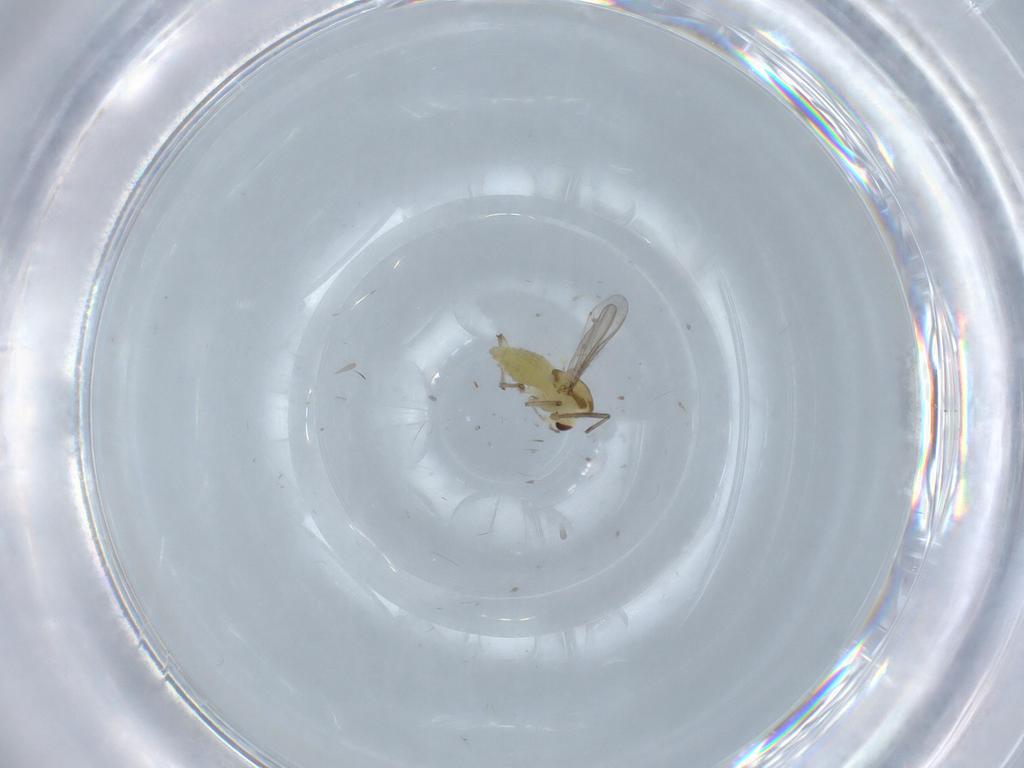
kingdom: Animalia
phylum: Arthropoda
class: Insecta
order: Diptera
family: Chironomidae
